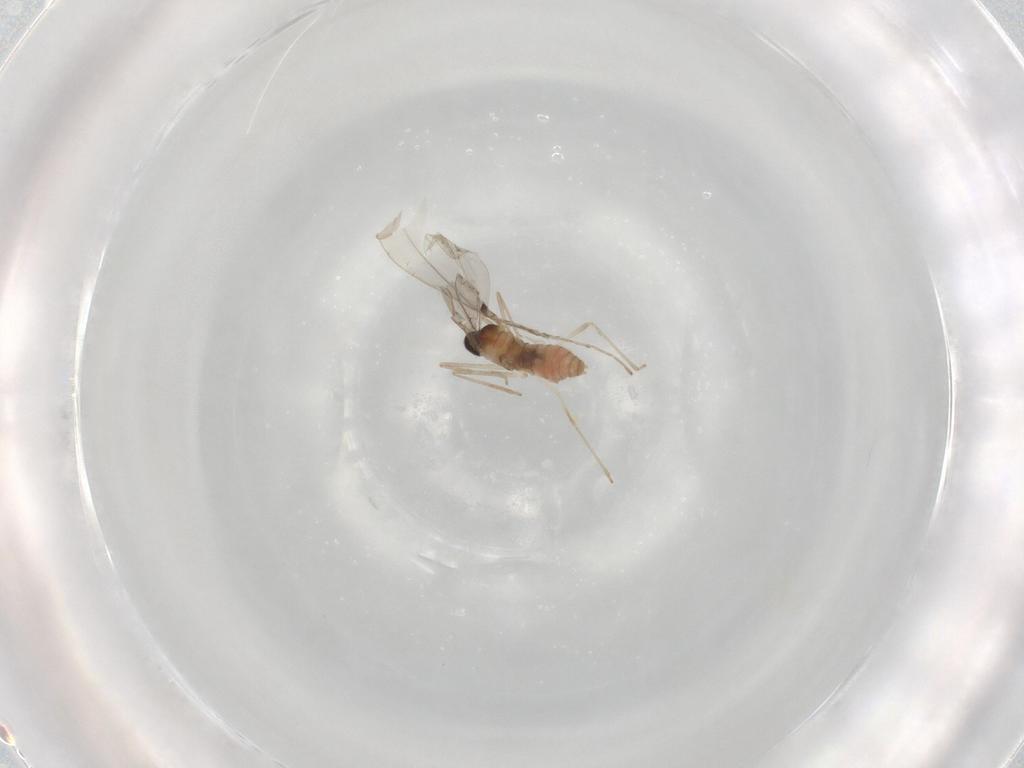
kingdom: Animalia
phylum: Arthropoda
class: Insecta
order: Diptera
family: Cecidomyiidae
